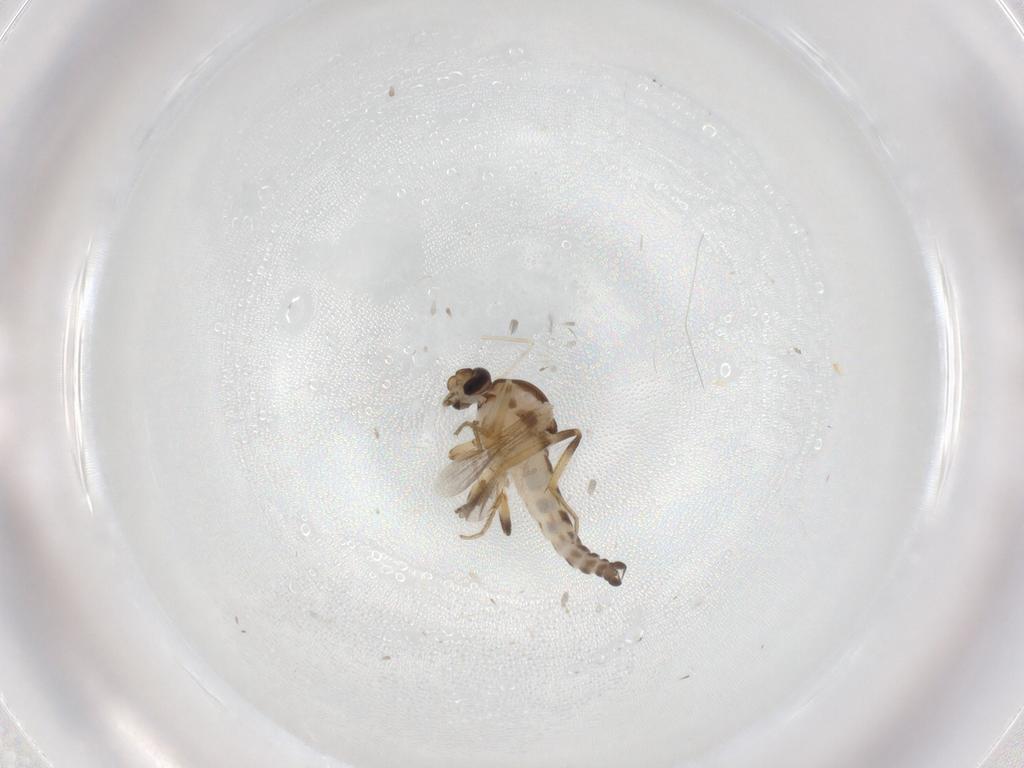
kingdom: Animalia
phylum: Arthropoda
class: Insecta
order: Diptera
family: Ceratopogonidae
